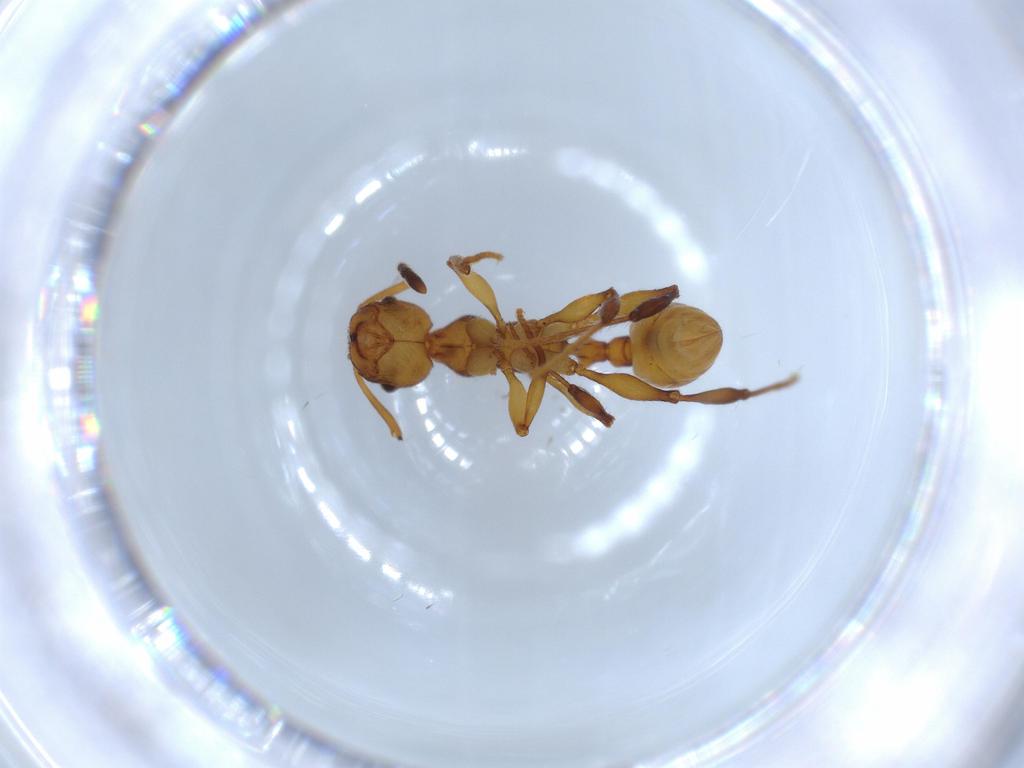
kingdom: Animalia
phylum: Arthropoda
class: Insecta
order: Hymenoptera
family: Formicidae
